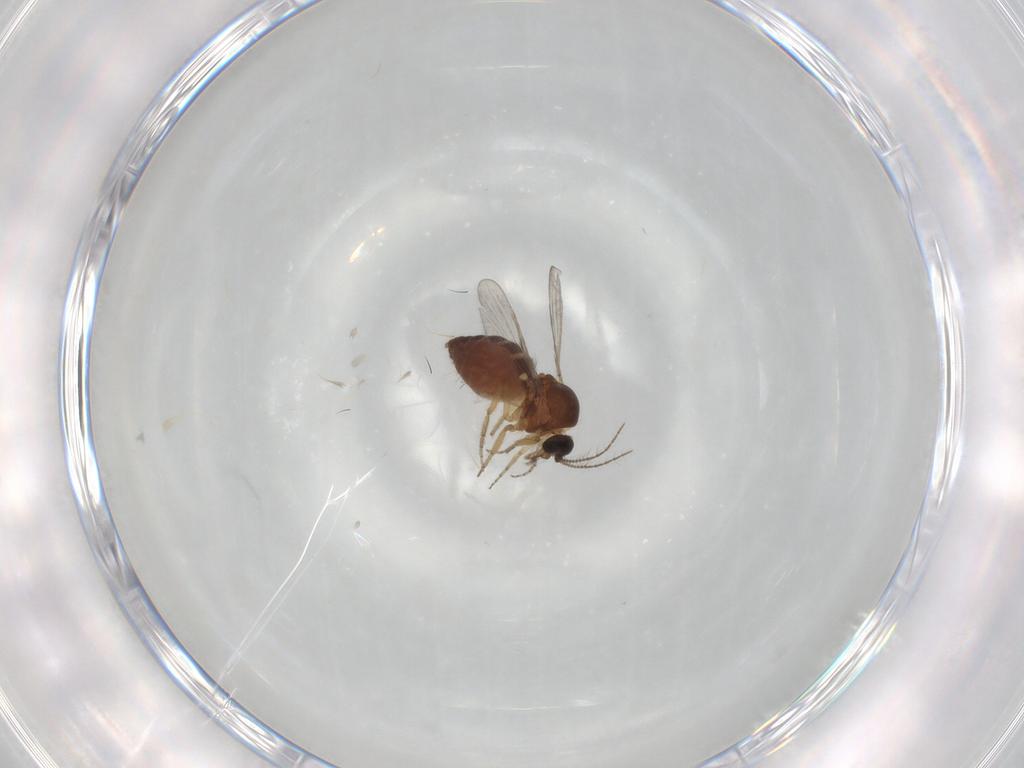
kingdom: Animalia
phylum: Arthropoda
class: Insecta
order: Diptera
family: Ceratopogonidae
